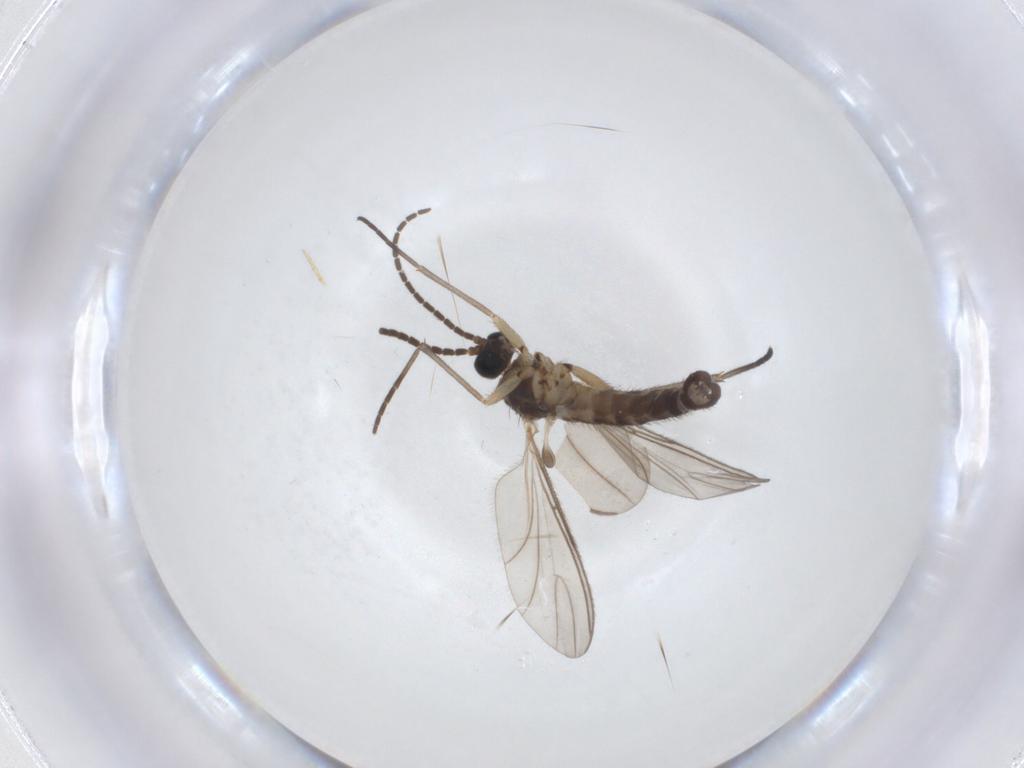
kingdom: Animalia
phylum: Arthropoda
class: Insecta
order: Diptera
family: Sciaridae
